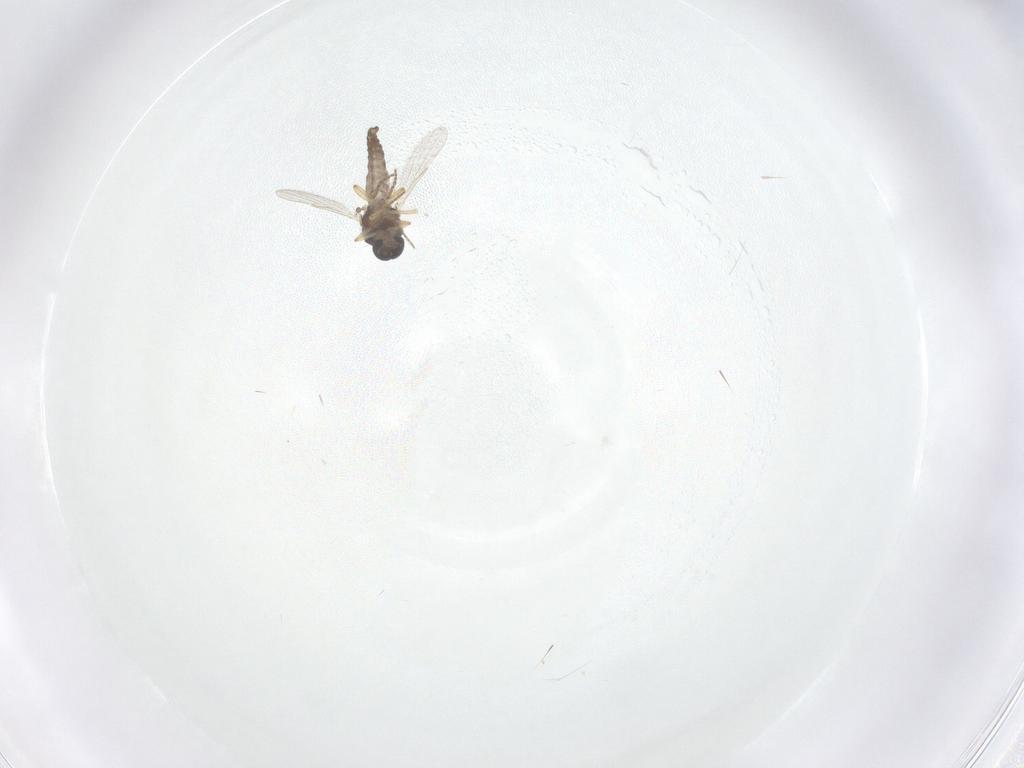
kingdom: Animalia
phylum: Arthropoda
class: Insecta
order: Diptera
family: Ceratopogonidae
